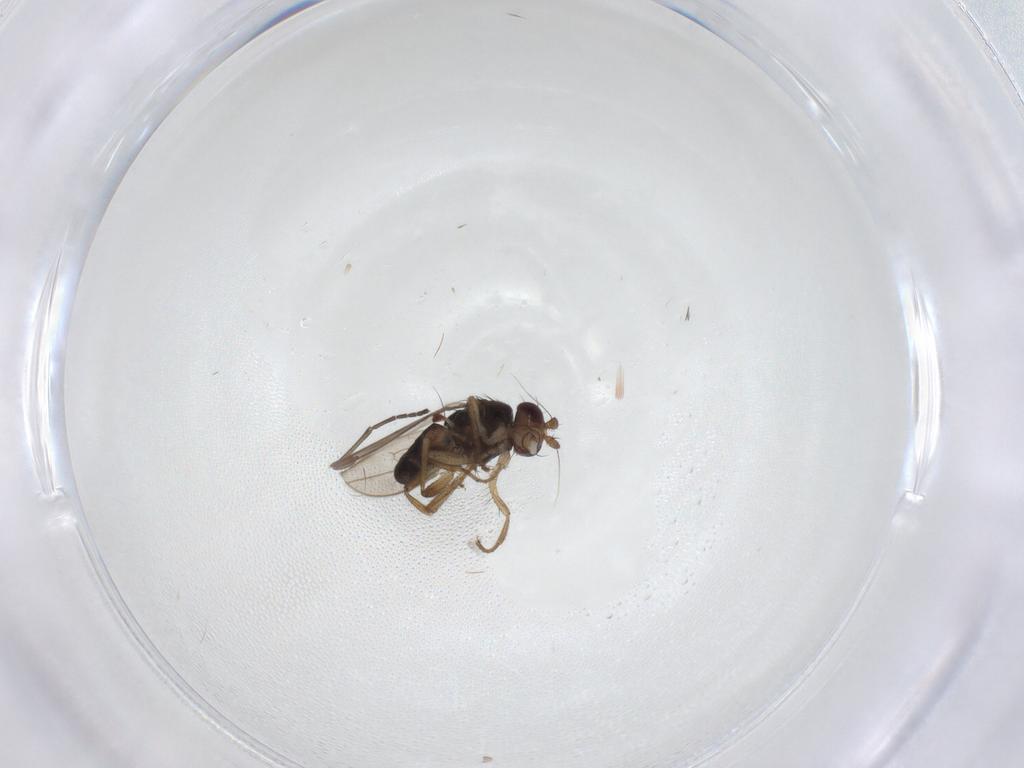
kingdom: Animalia
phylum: Arthropoda
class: Insecta
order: Diptera
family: Sphaeroceridae
